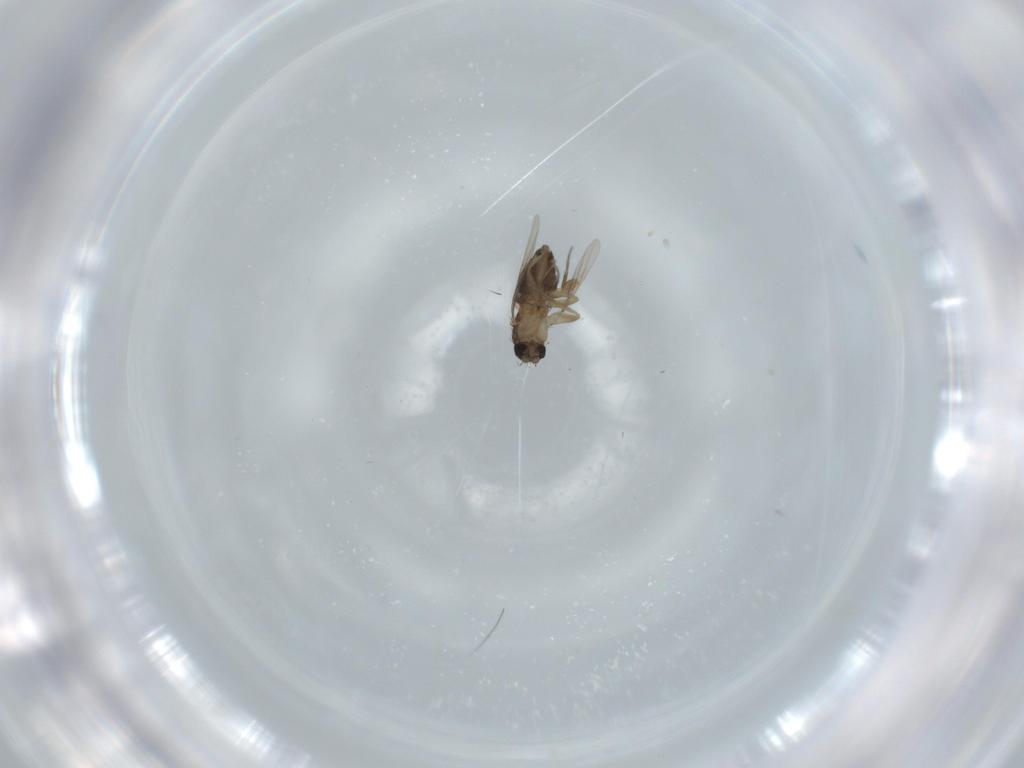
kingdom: Animalia
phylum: Arthropoda
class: Insecta
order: Diptera
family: Phoridae
